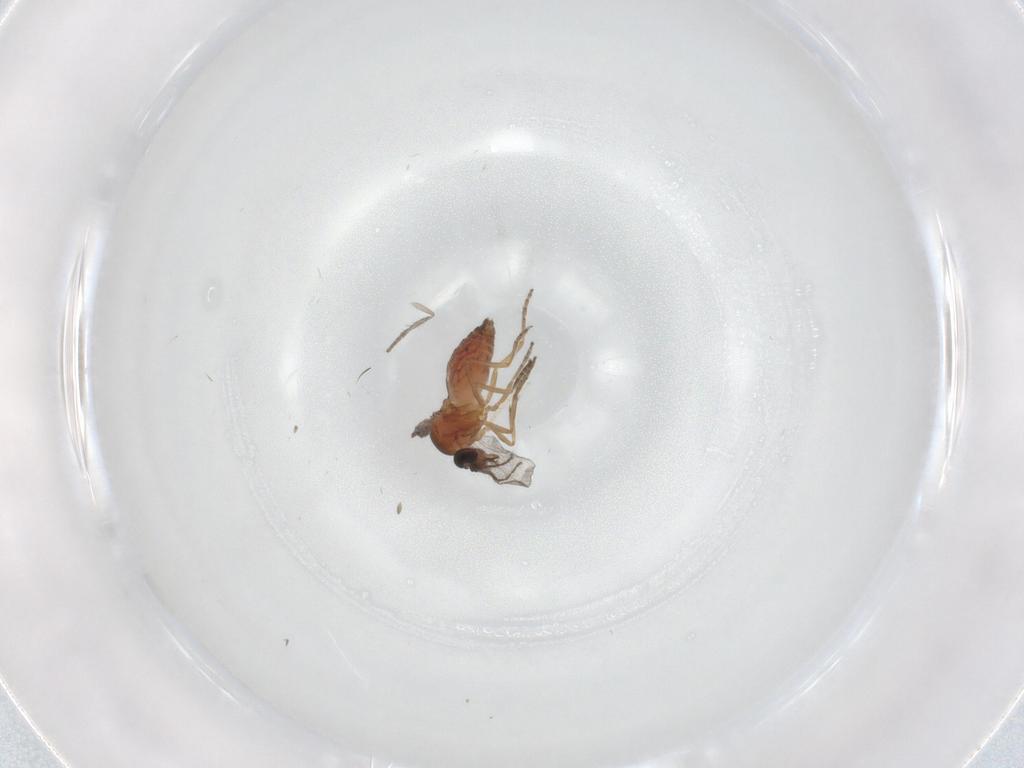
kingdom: Animalia
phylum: Arthropoda
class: Insecta
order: Diptera
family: Ceratopogonidae
